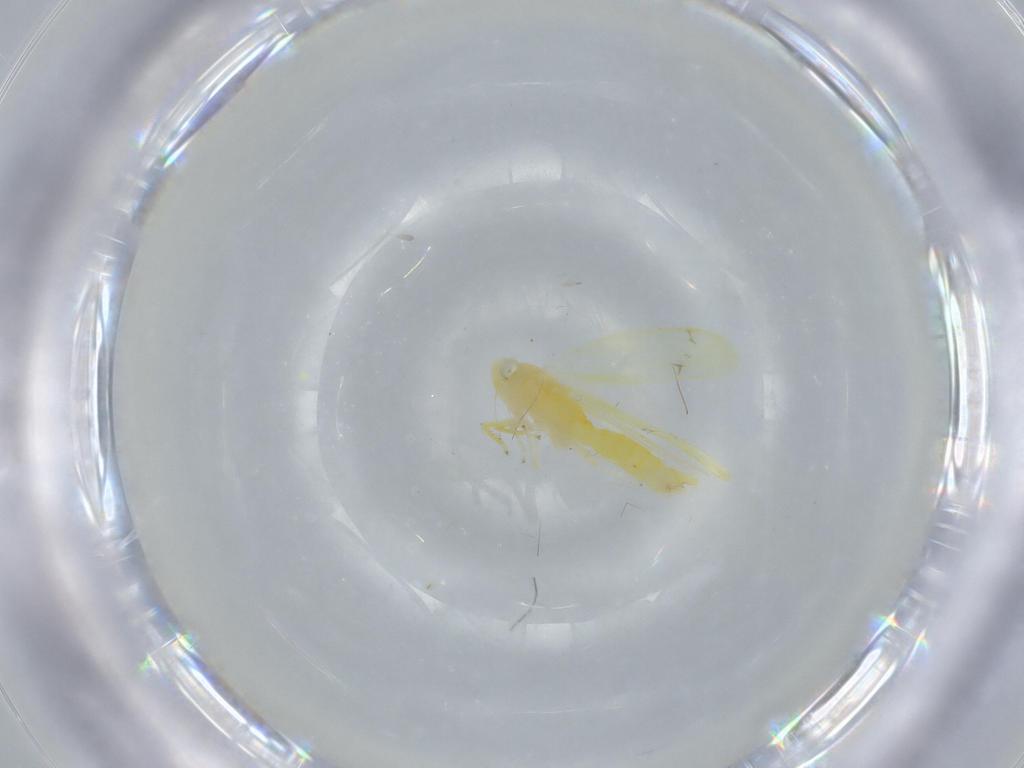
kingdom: Animalia
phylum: Arthropoda
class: Insecta
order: Hemiptera
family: Cicadellidae
